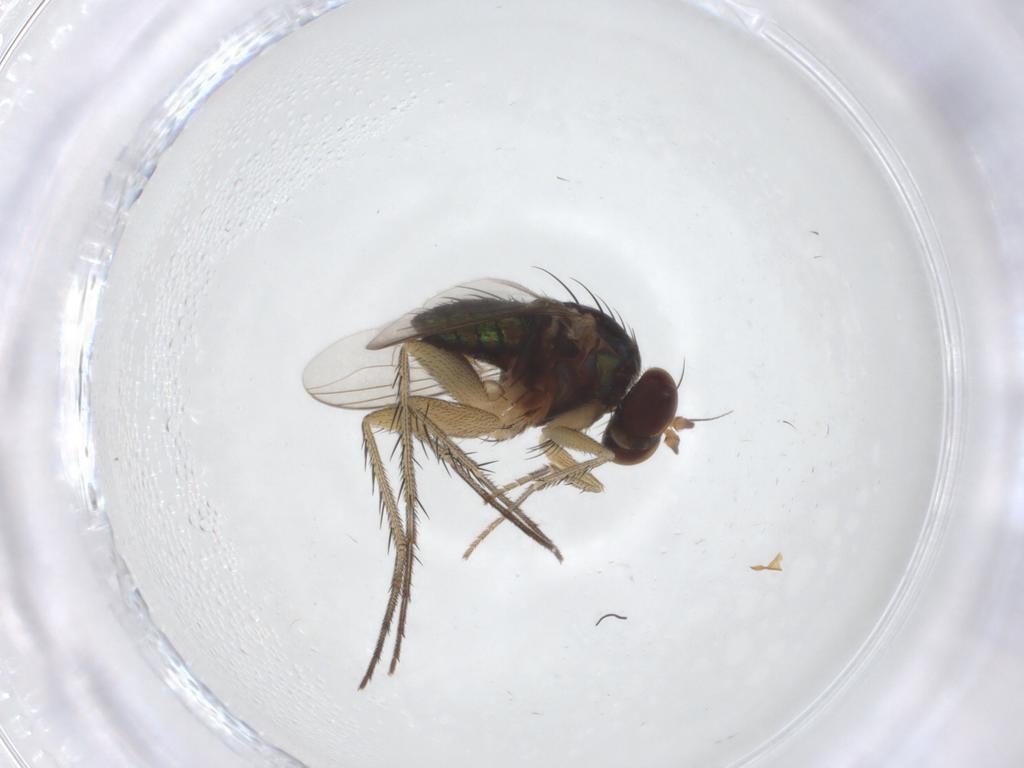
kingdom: Animalia
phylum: Arthropoda
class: Insecta
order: Diptera
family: Dolichopodidae
